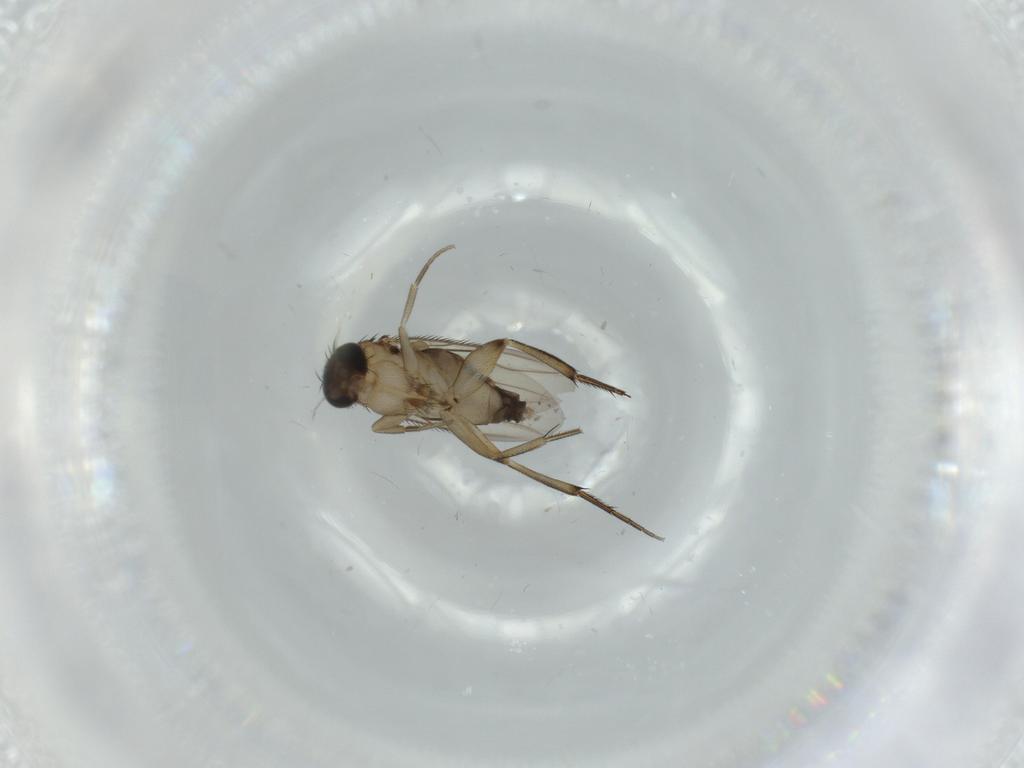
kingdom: Animalia
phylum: Arthropoda
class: Insecta
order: Diptera
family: Phoridae
